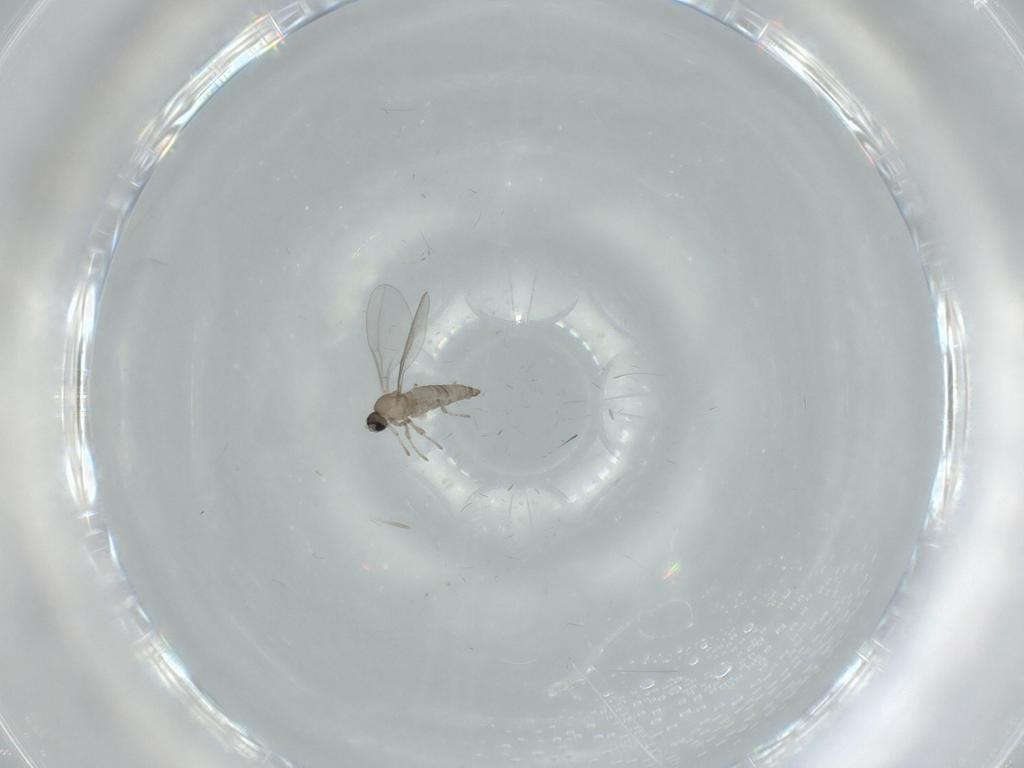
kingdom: Animalia
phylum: Arthropoda
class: Insecta
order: Diptera
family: Cecidomyiidae
